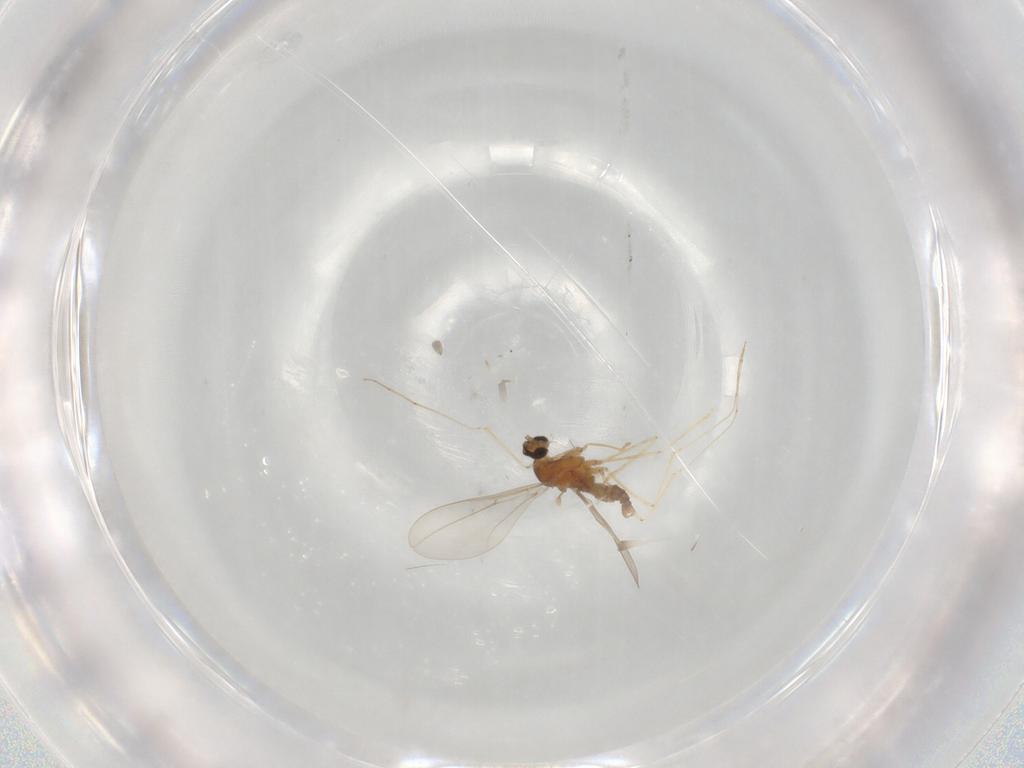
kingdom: Animalia
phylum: Arthropoda
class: Insecta
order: Diptera
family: Cecidomyiidae
